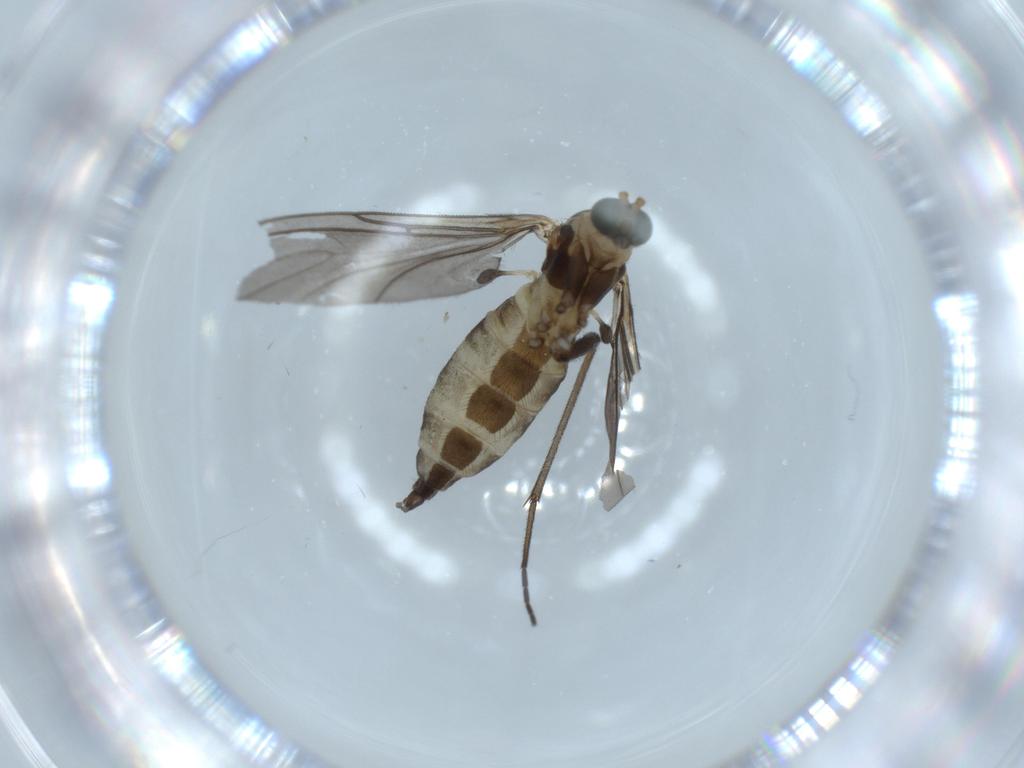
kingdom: Animalia
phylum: Arthropoda
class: Insecta
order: Diptera
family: Sciaridae
